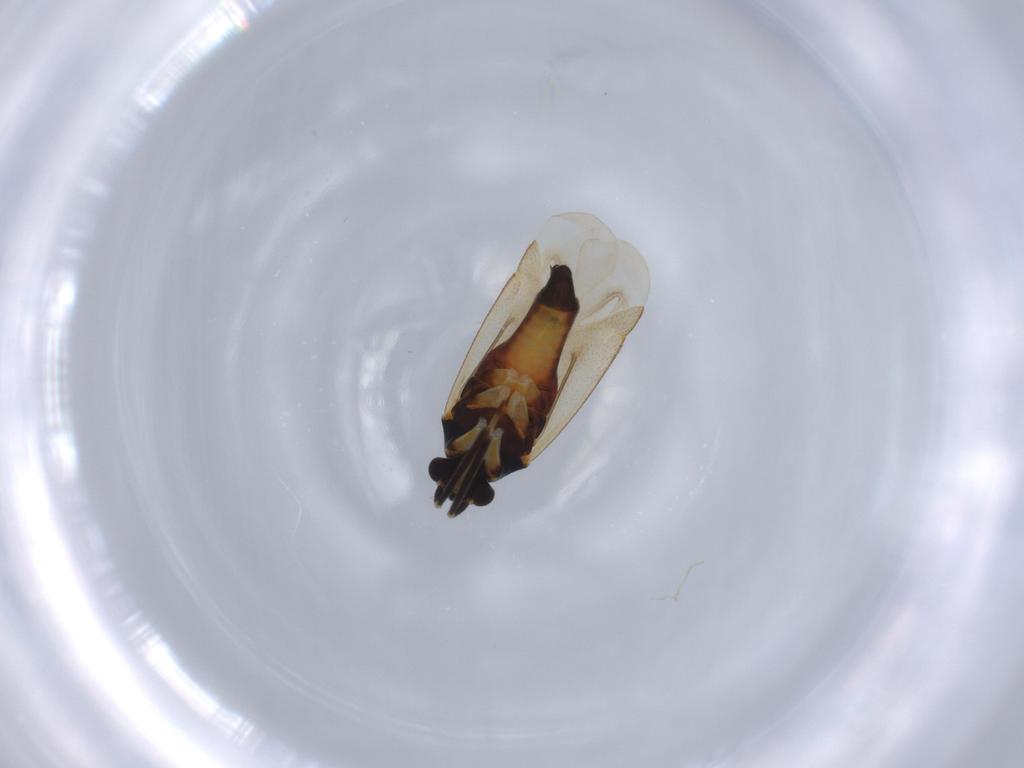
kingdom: Animalia
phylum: Arthropoda
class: Insecta
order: Hemiptera
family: Miridae
